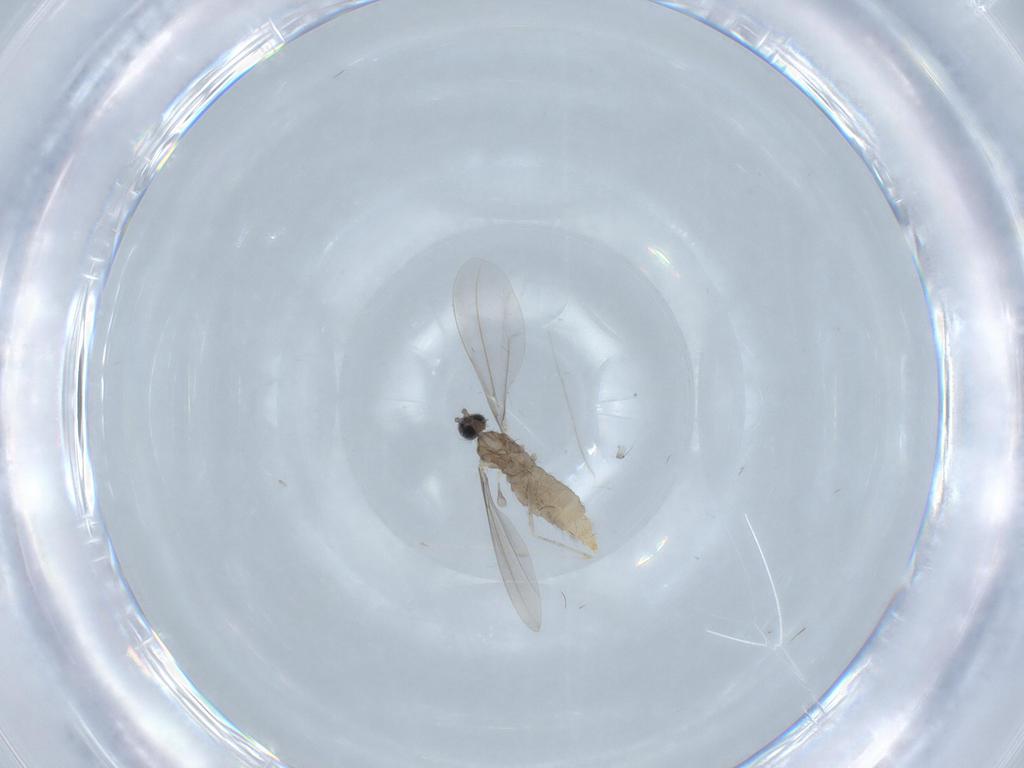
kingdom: Animalia
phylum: Arthropoda
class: Insecta
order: Diptera
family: Cecidomyiidae
